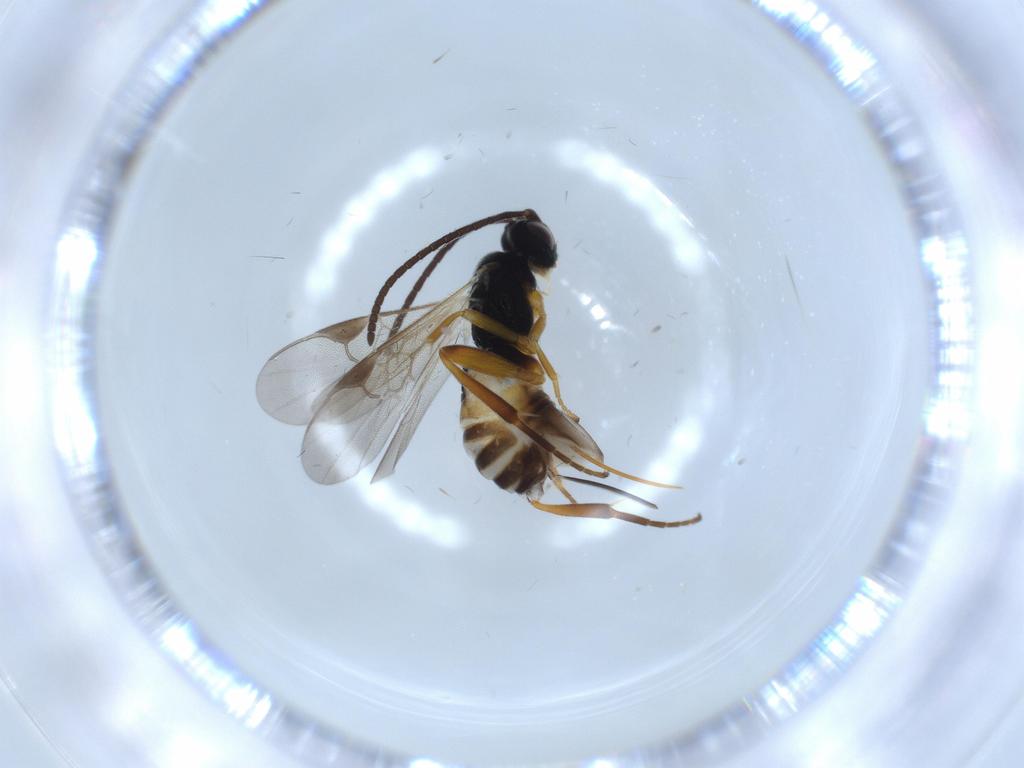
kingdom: Animalia
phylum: Arthropoda
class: Insecta
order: Hymenoptera
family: Braconidae
